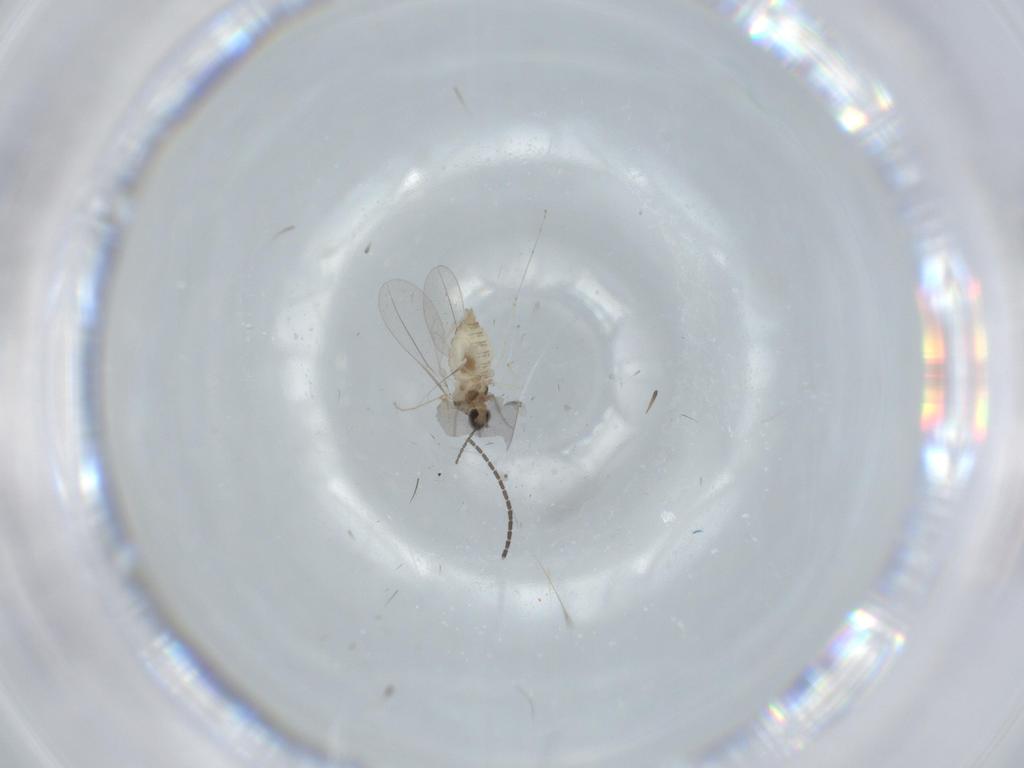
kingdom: Animalia
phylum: Arthropoda
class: Insecta
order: Diptera
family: Cecidomyiidae
